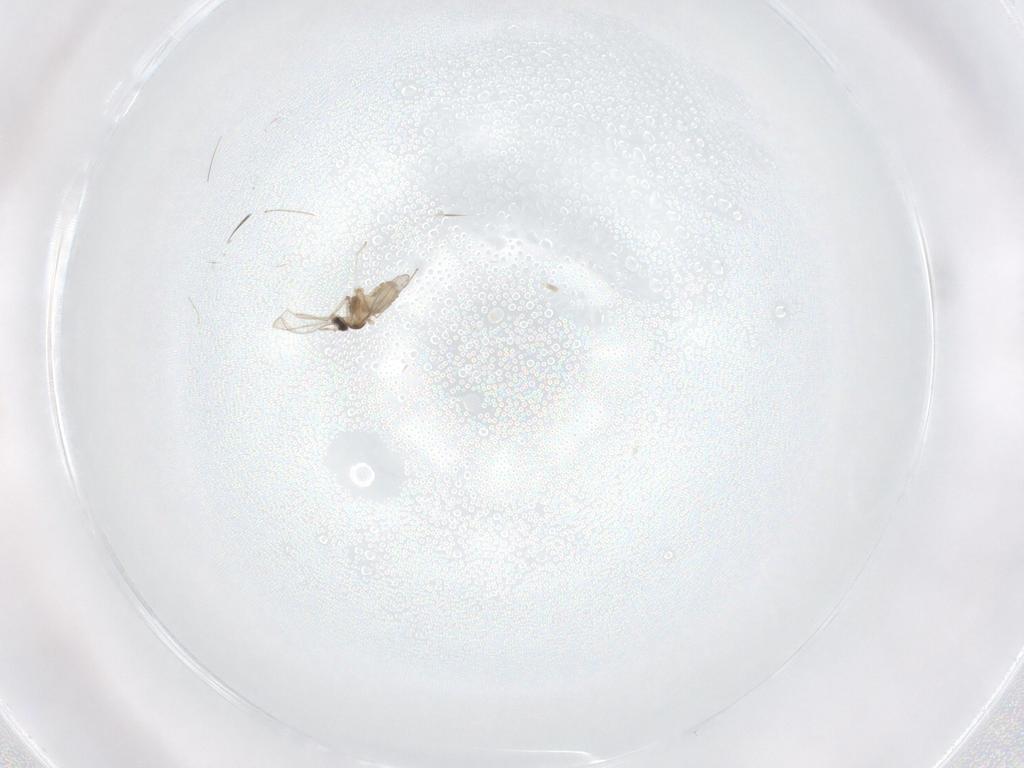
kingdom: Animalia
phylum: Arthropoda
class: Insecta
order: Diptera
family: Cecidomyiidae
